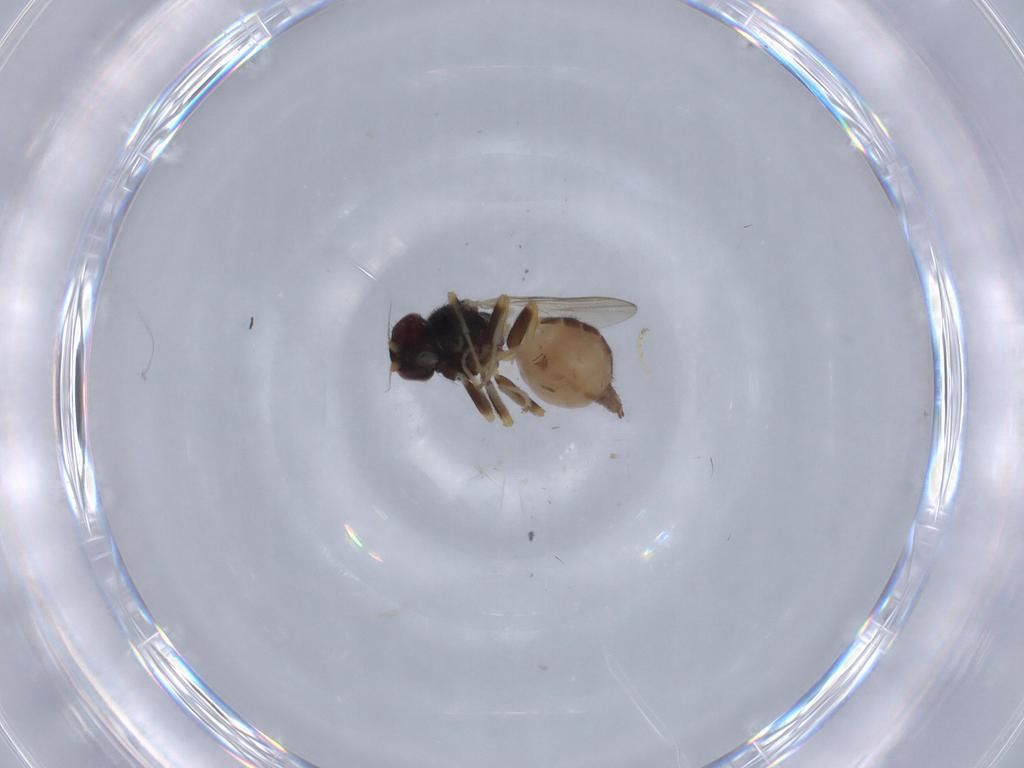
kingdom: Animalia
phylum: Arthropoda
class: Insecta
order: Diptera
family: Chloropidae
